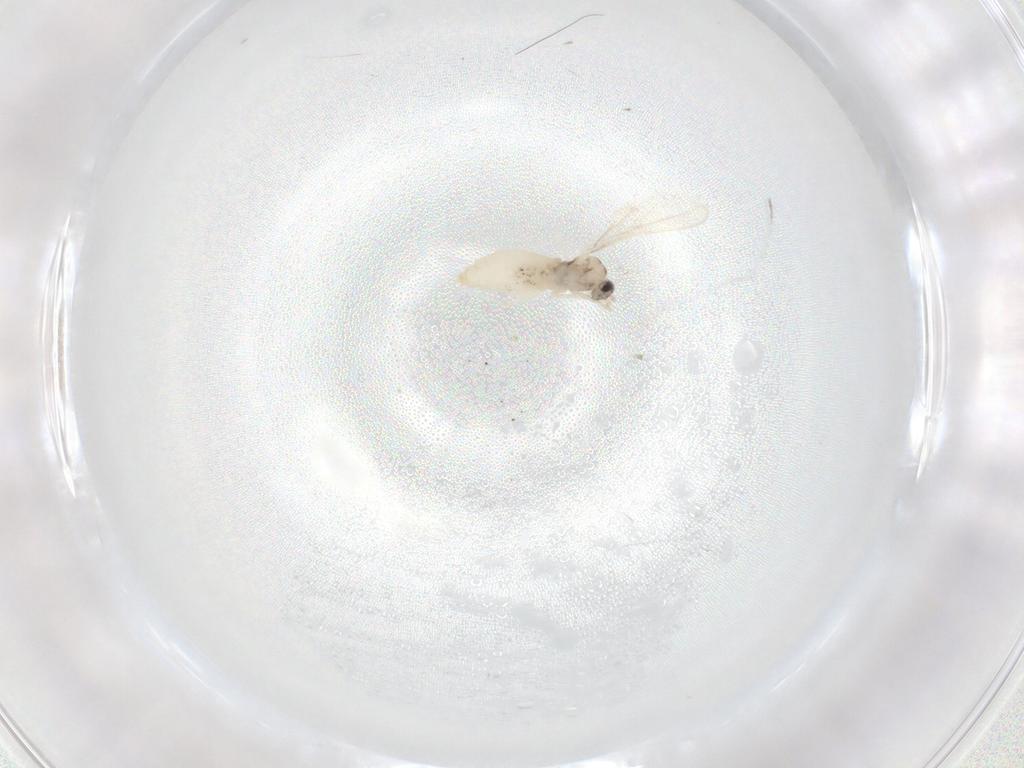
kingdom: Animalia
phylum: Arthropoda
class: Insecta
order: Diptera
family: Cecidomyiidae
